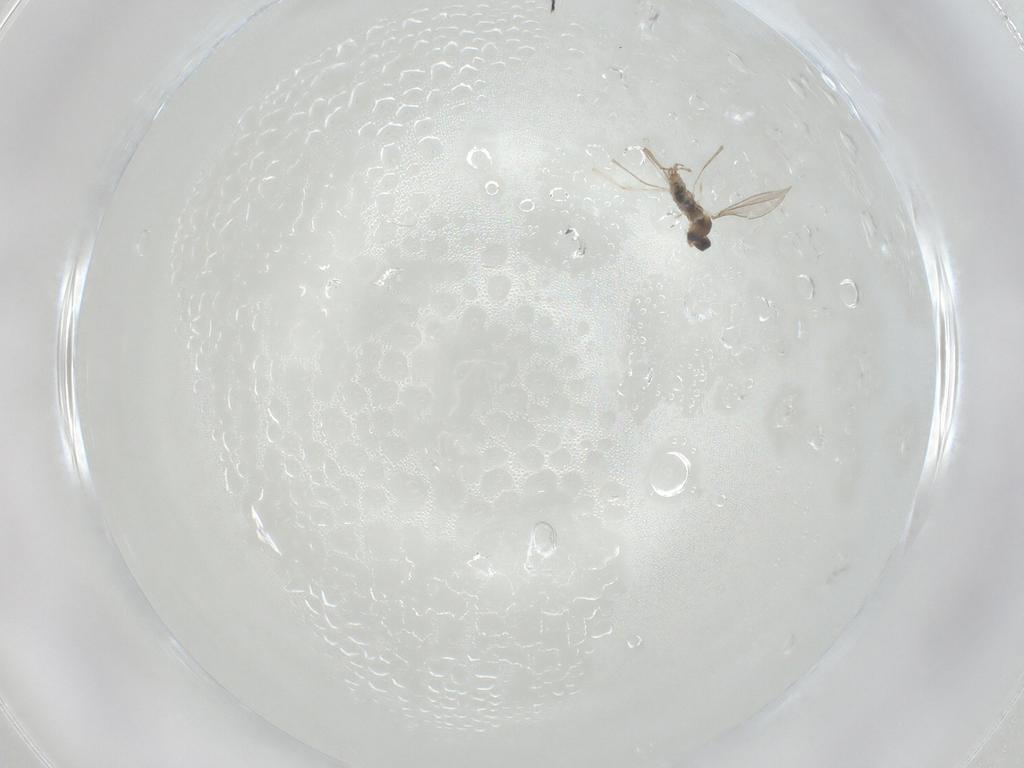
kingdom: Animalia
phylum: Arthropoda
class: Insecta
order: Diptera
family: Cecidomyiidae
